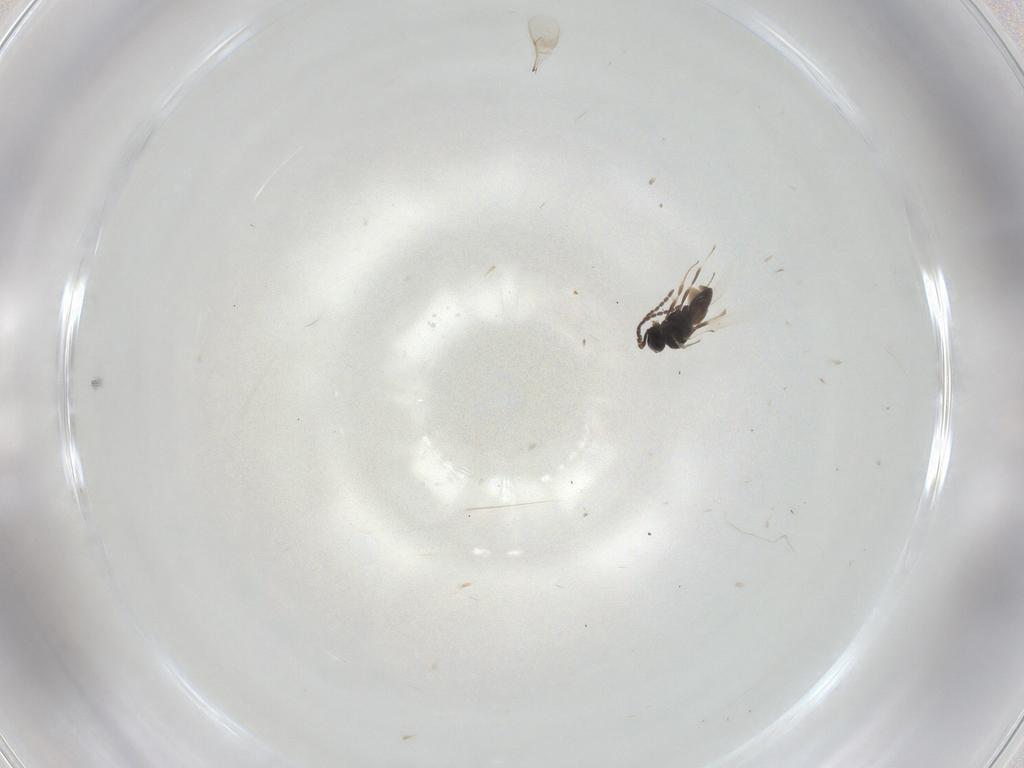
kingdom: Animalia
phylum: Arthropoda
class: Insecta
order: Hymenoptera
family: Scelionidae
